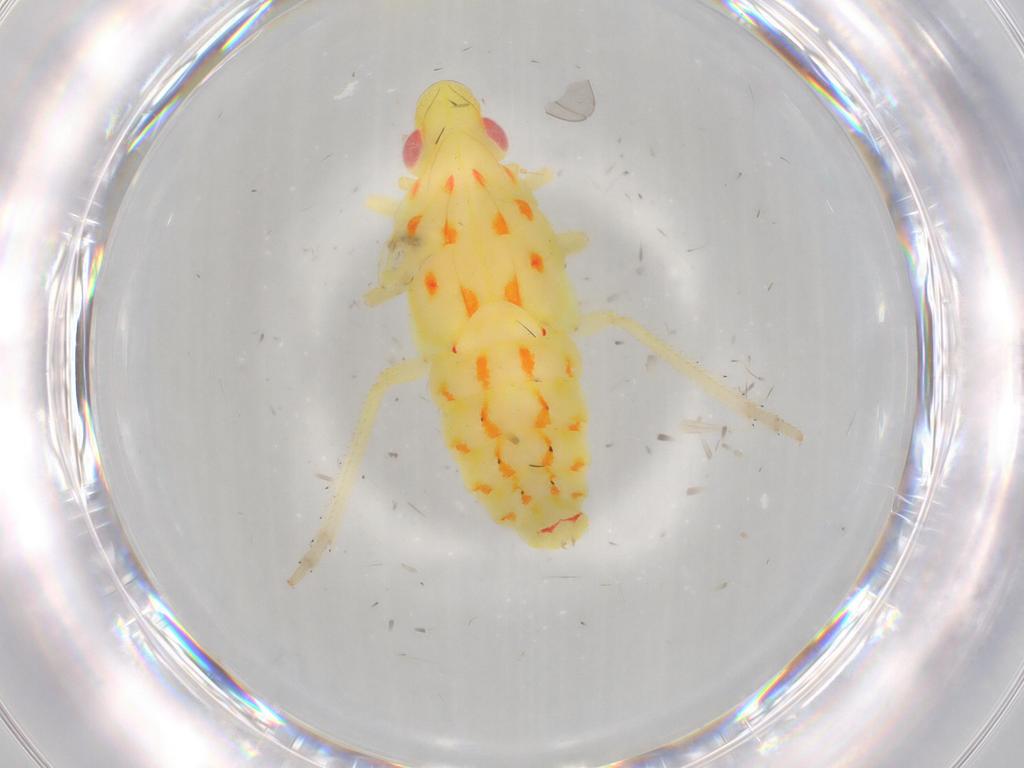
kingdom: Animalia
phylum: Arthropoda
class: Insecta
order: Hemiptera
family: Tropiduchidae
